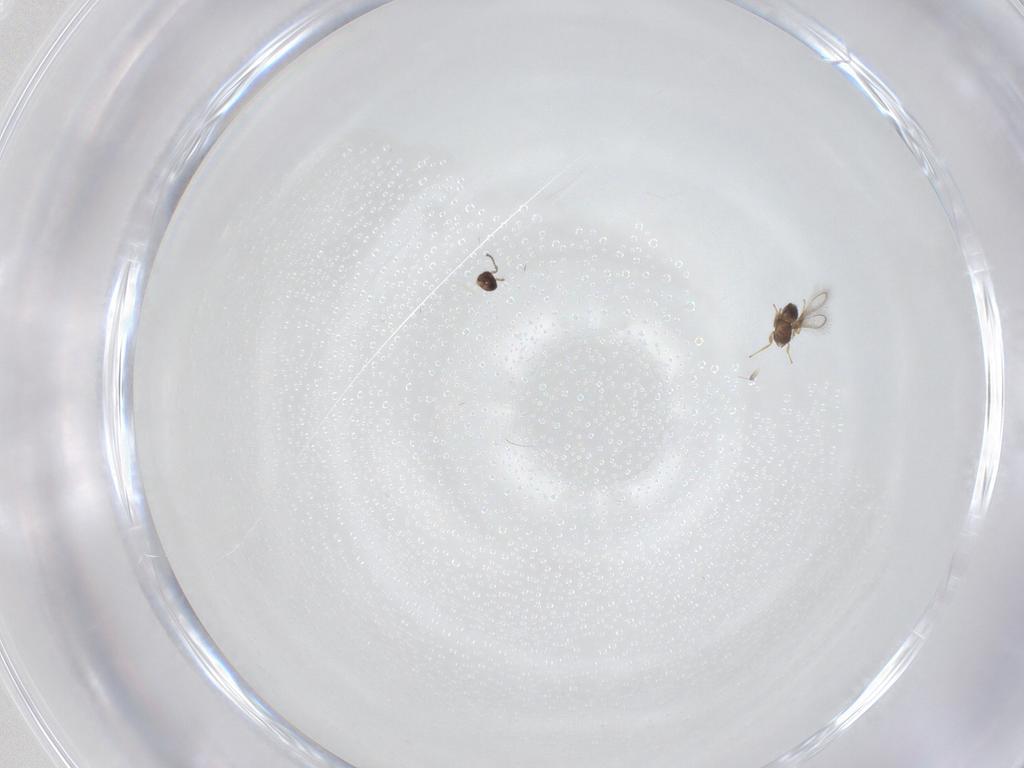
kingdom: Animalia
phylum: Arthropoda
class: Insecta
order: Hymenoptera
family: Mymaridae
